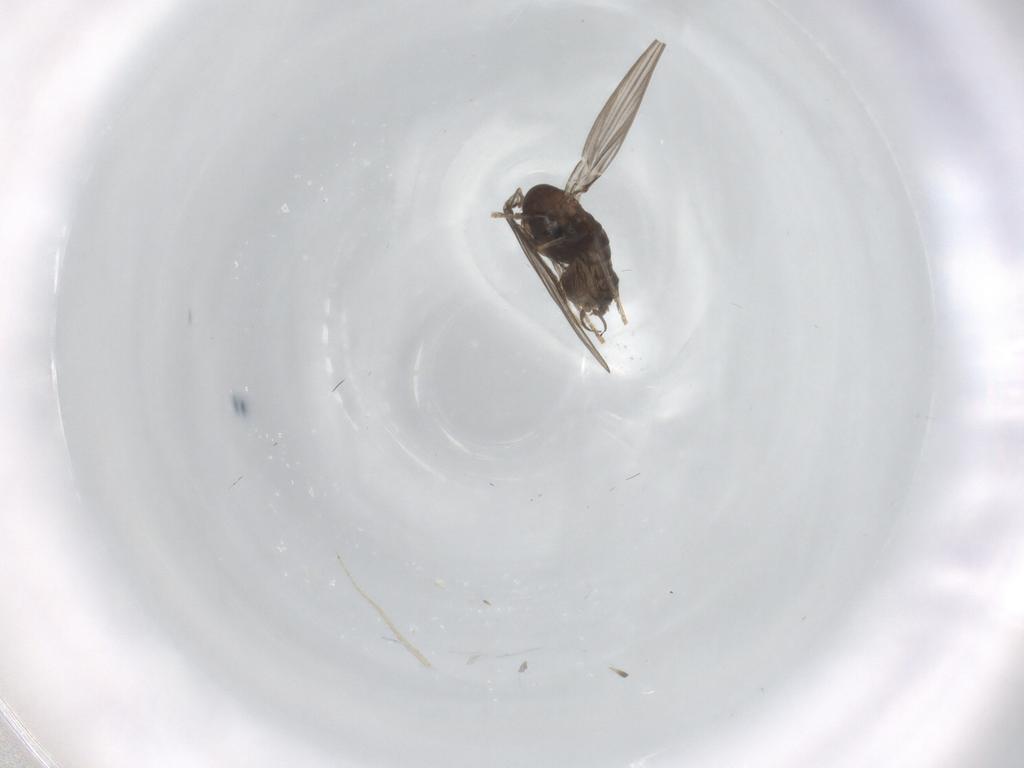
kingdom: Animalia
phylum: Arthropoda
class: Insecta
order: Diptera
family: Psychodidae
